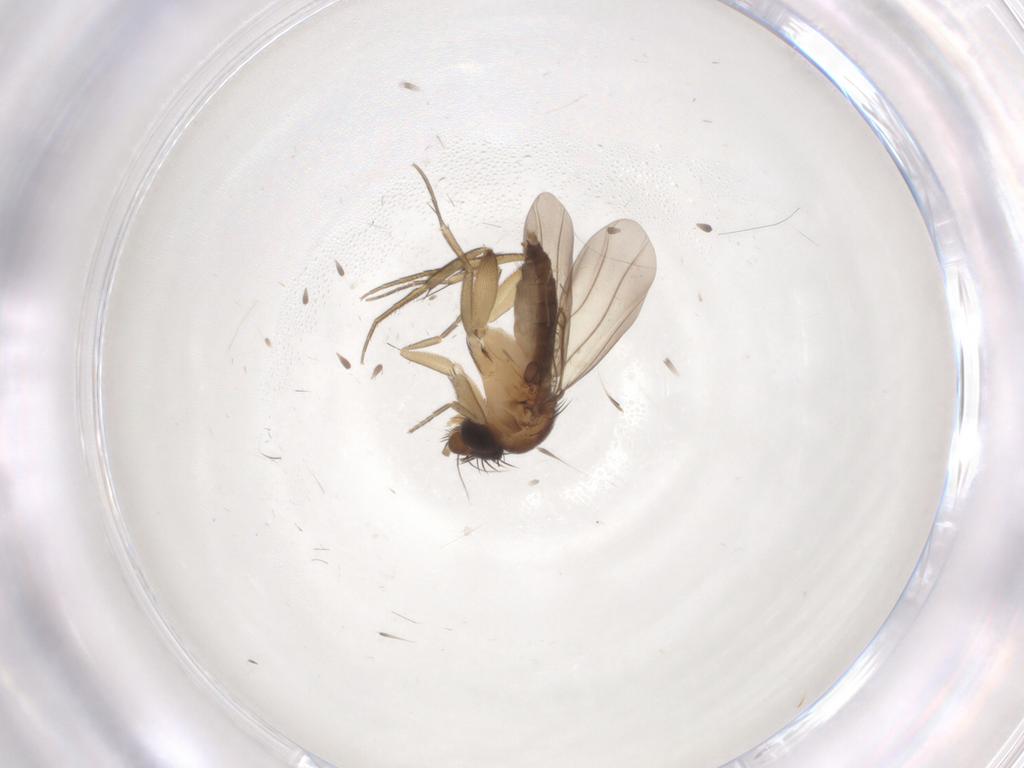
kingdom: Animalia
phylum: Arthropoda
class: Insecta
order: Diptera
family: Phoridae
